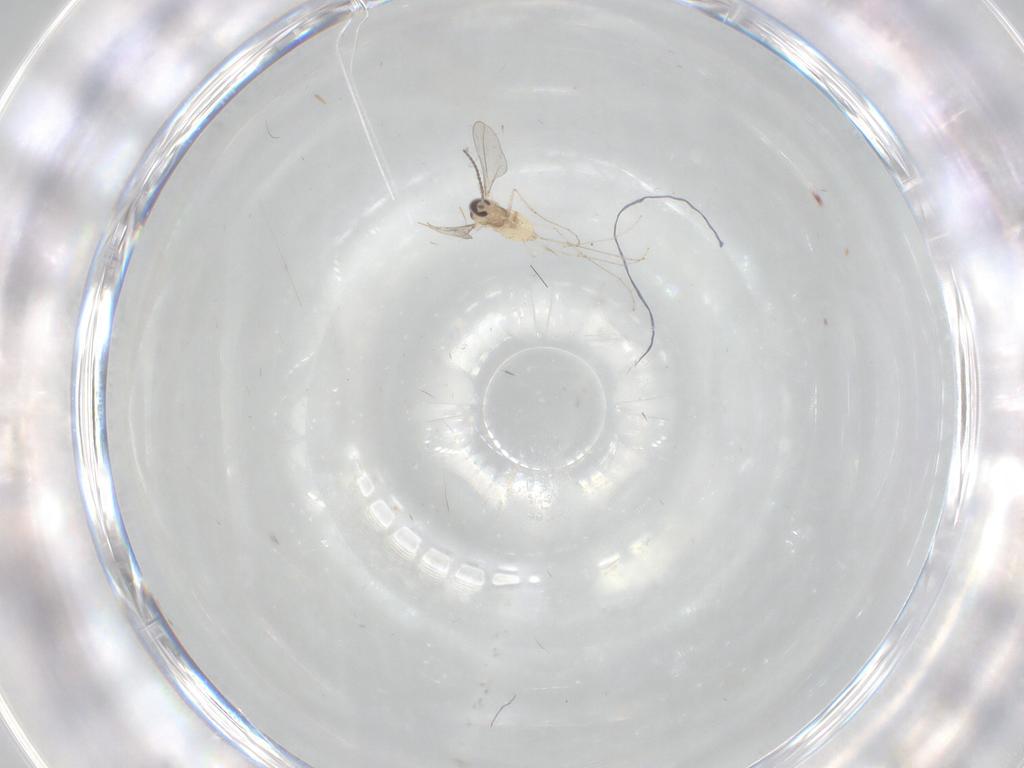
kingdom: Animalia
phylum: Arthropoda
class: Insecta
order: Diptera
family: Cecidomyiidae
